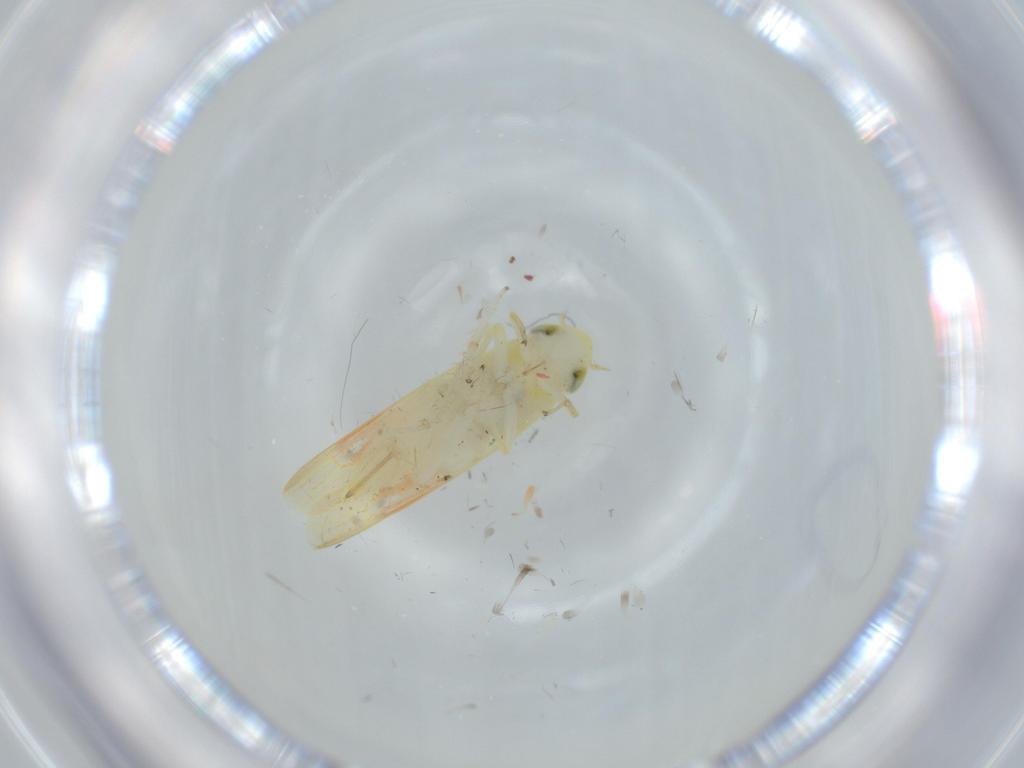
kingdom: Animalia
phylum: Arthropoda
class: Insecta
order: Hemiptera
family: Cicadellidae
